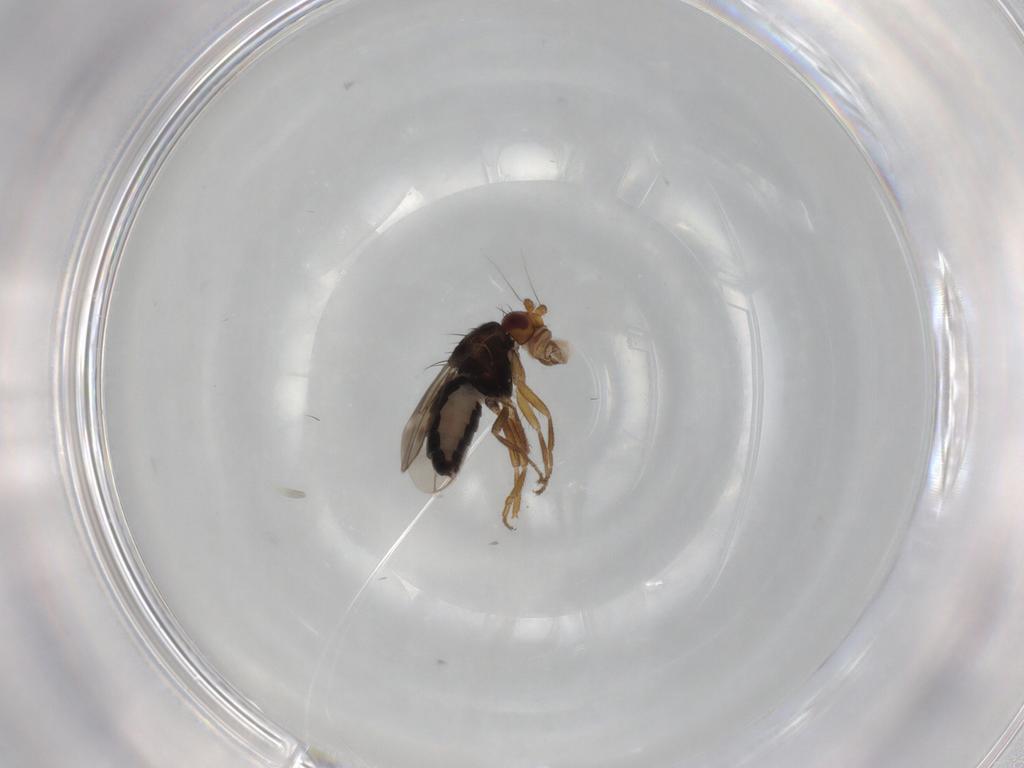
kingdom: Animalia
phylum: Arthropoda
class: Insecta
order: Diptera
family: Sphaeroceridae
